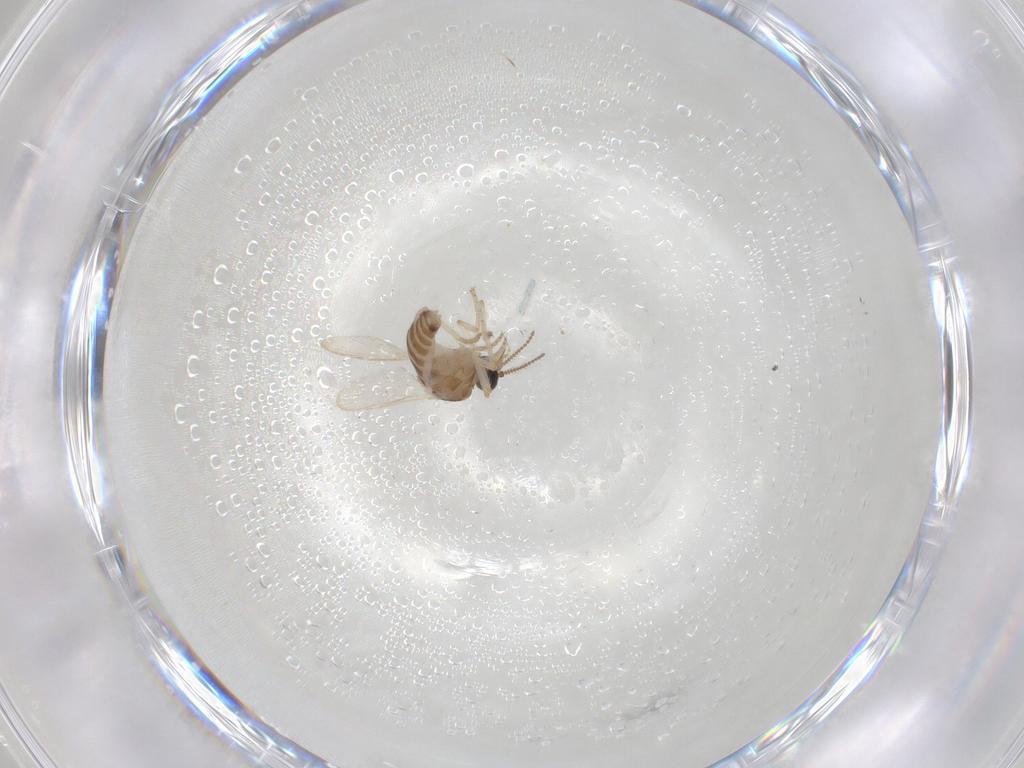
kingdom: Animalia
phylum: Arthropoda
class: Insecta
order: Diptera
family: Ceratopogonidae
